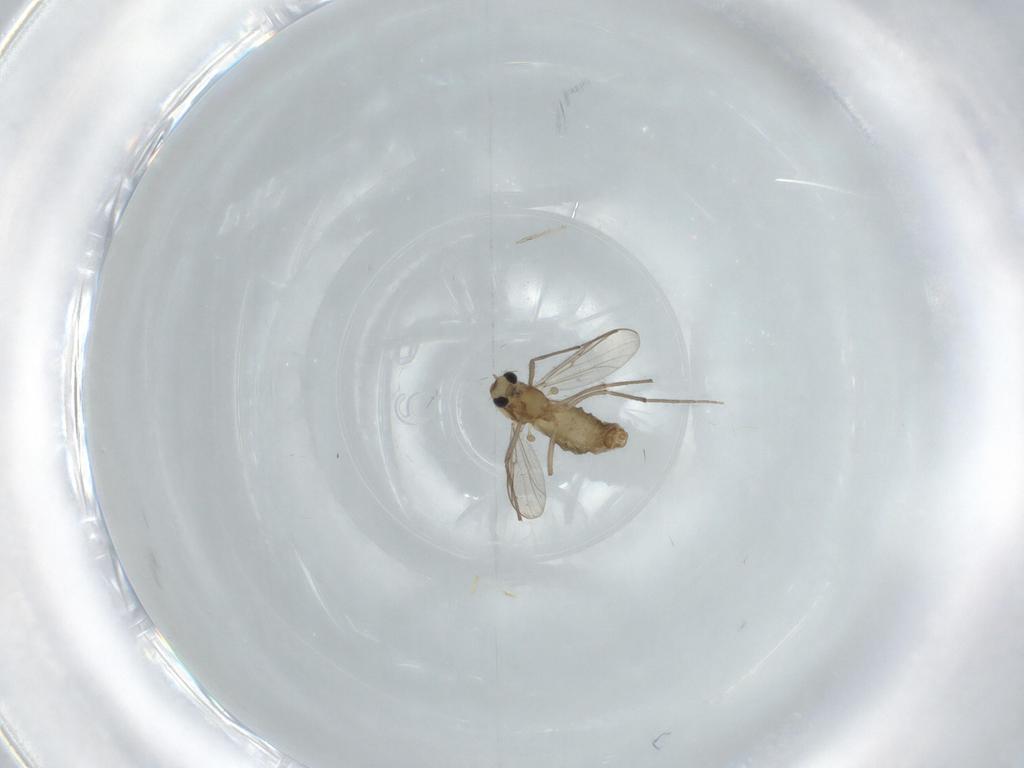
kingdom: Animalia
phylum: Arthropoda
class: Insecta
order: Diptera
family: Chironomidae
